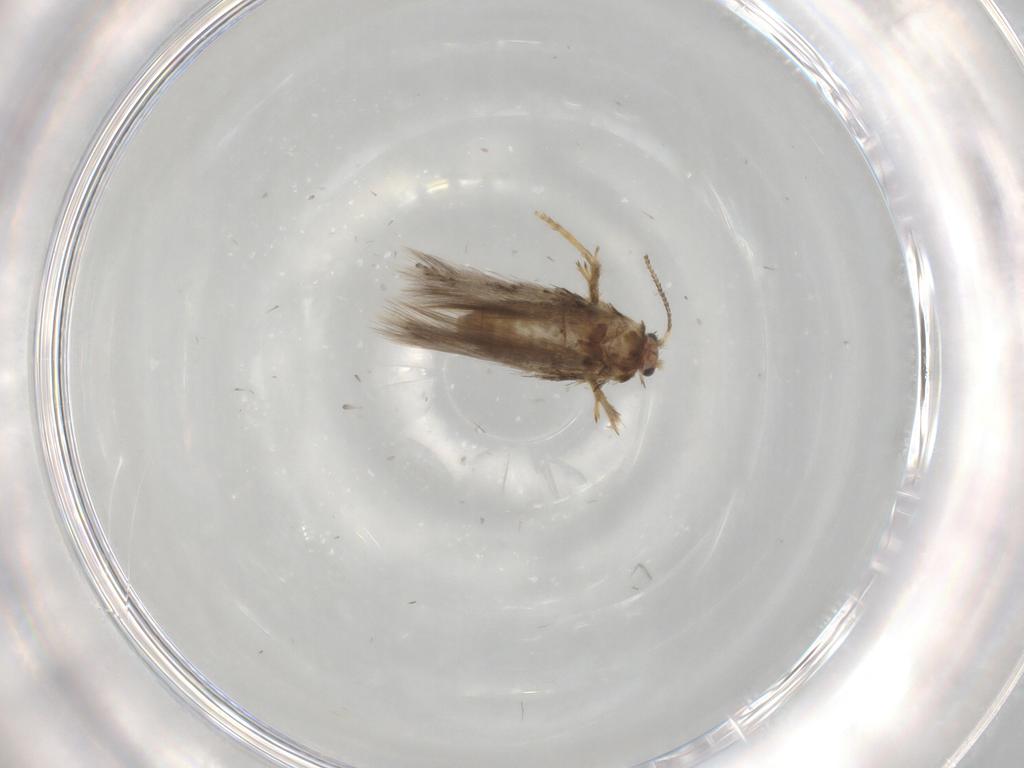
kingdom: Animalia
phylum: Arthropoda
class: Insecta
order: Lepidoptera
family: Nepticulidae
